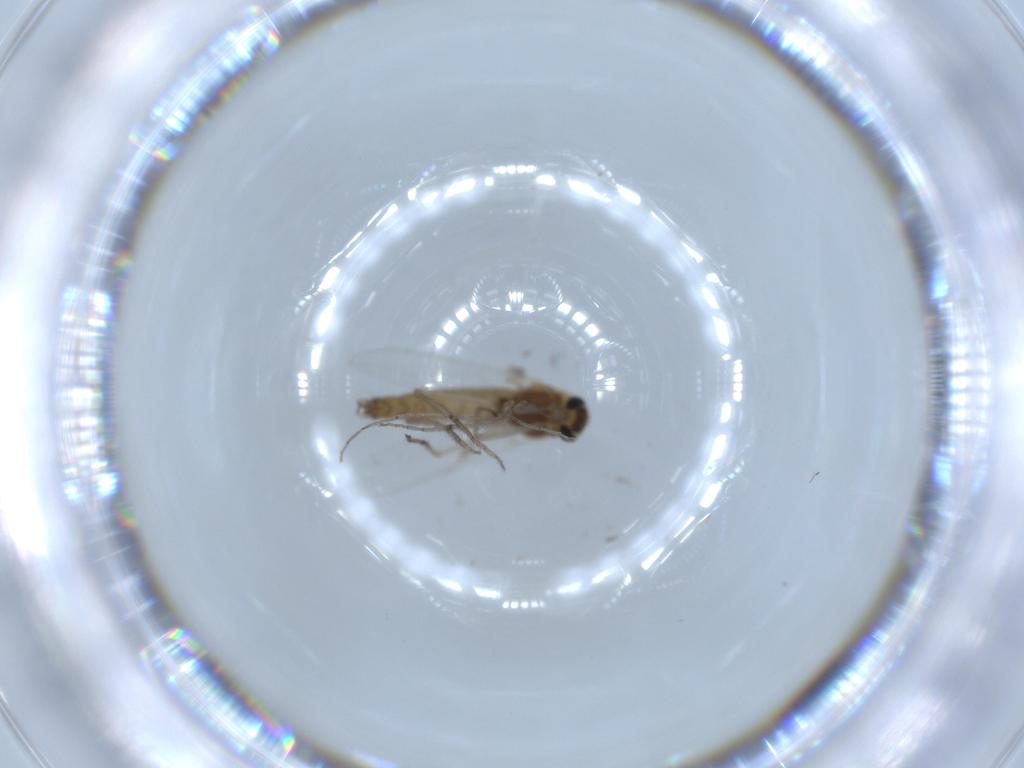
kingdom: Animalia
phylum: Arthropoda
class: Insecta
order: Diptera
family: Chironomidae
